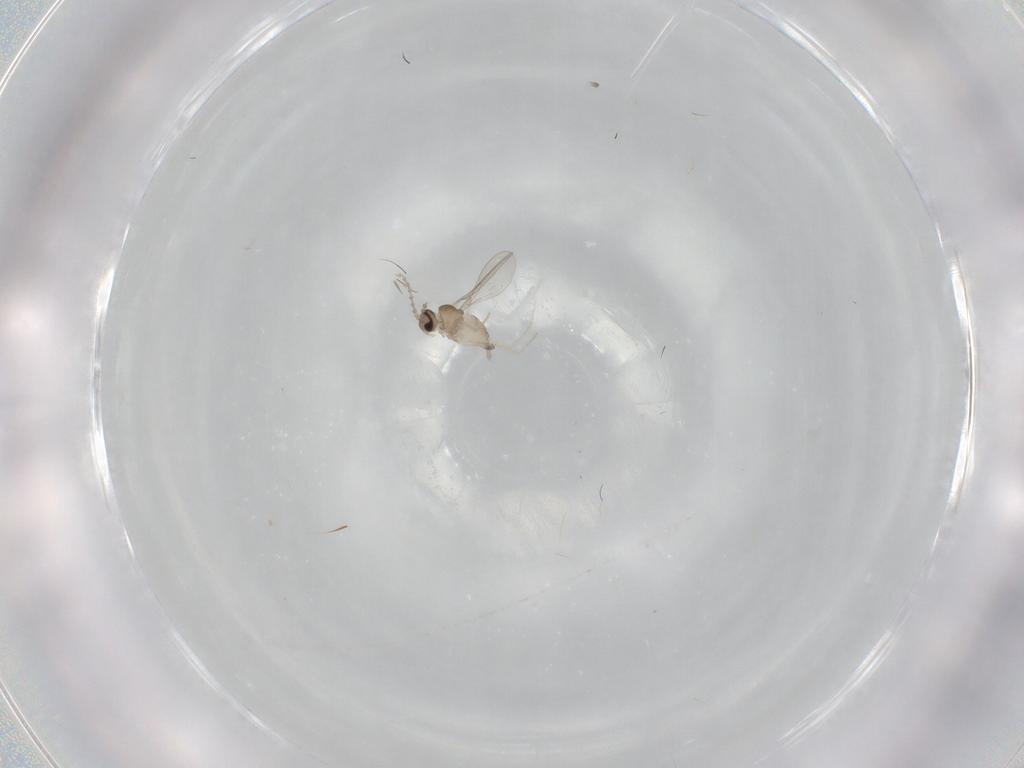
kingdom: Animalia
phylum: Arthropoda
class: Insecta
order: Diptera
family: Cecidomyiidae
